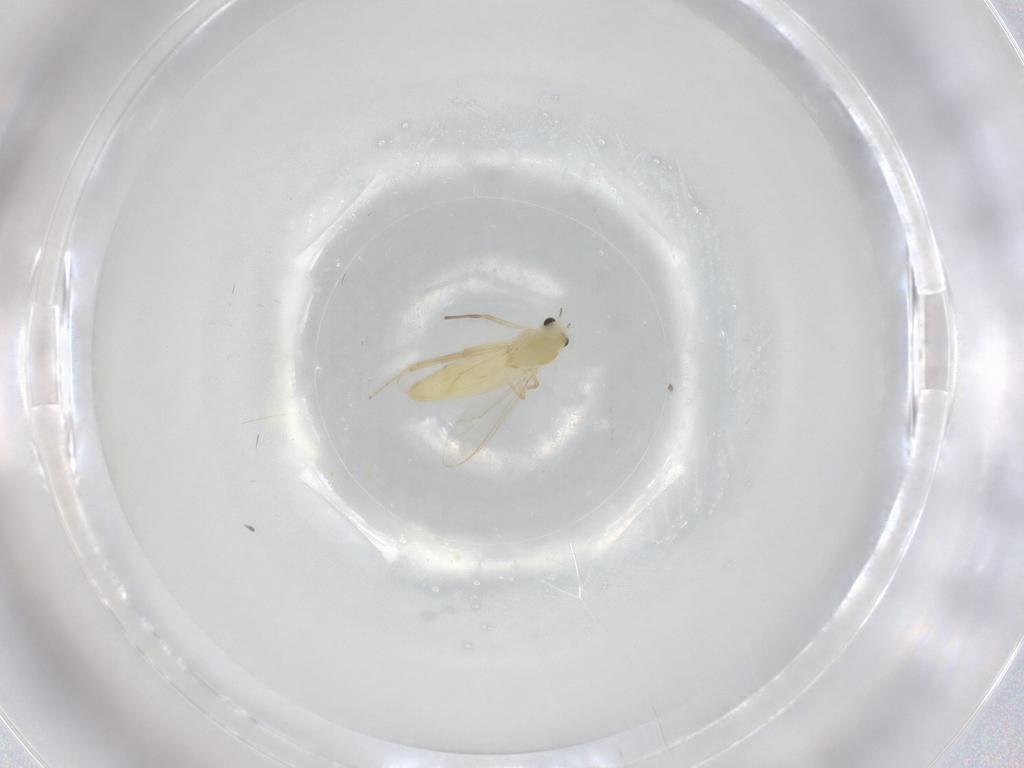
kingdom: Animalia
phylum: Arthropoda
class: Insecta
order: Diptera
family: Chironomidae
